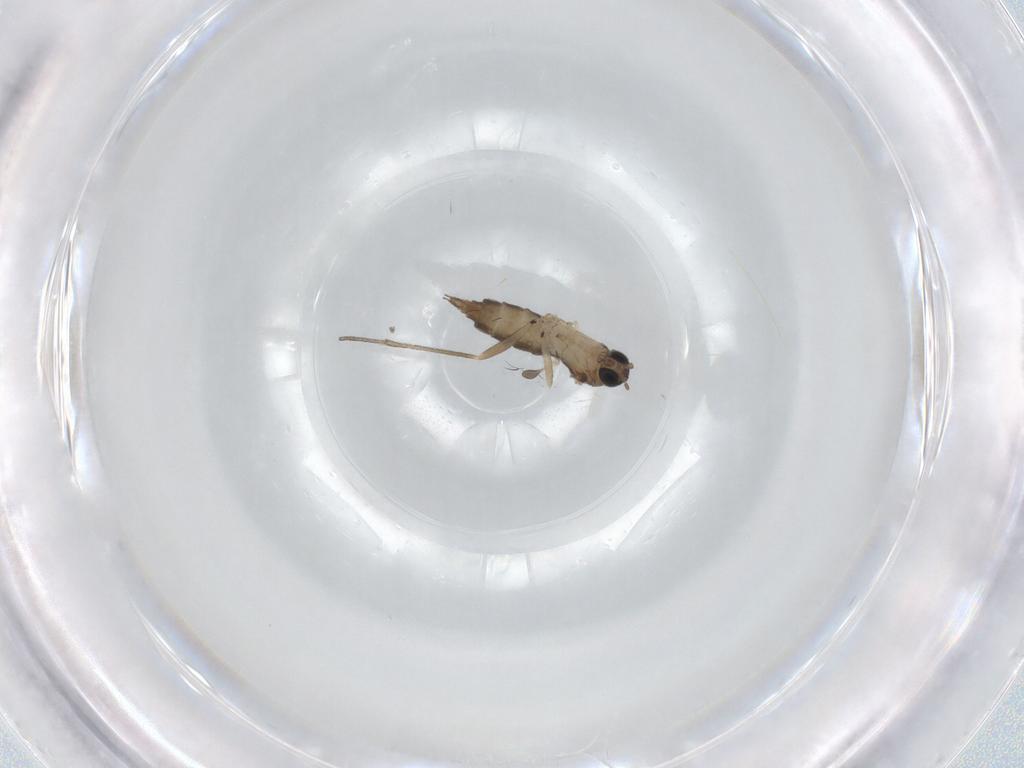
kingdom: Animalia
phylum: Arthropoda
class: Insecta
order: Diptera
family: Sciaridae
